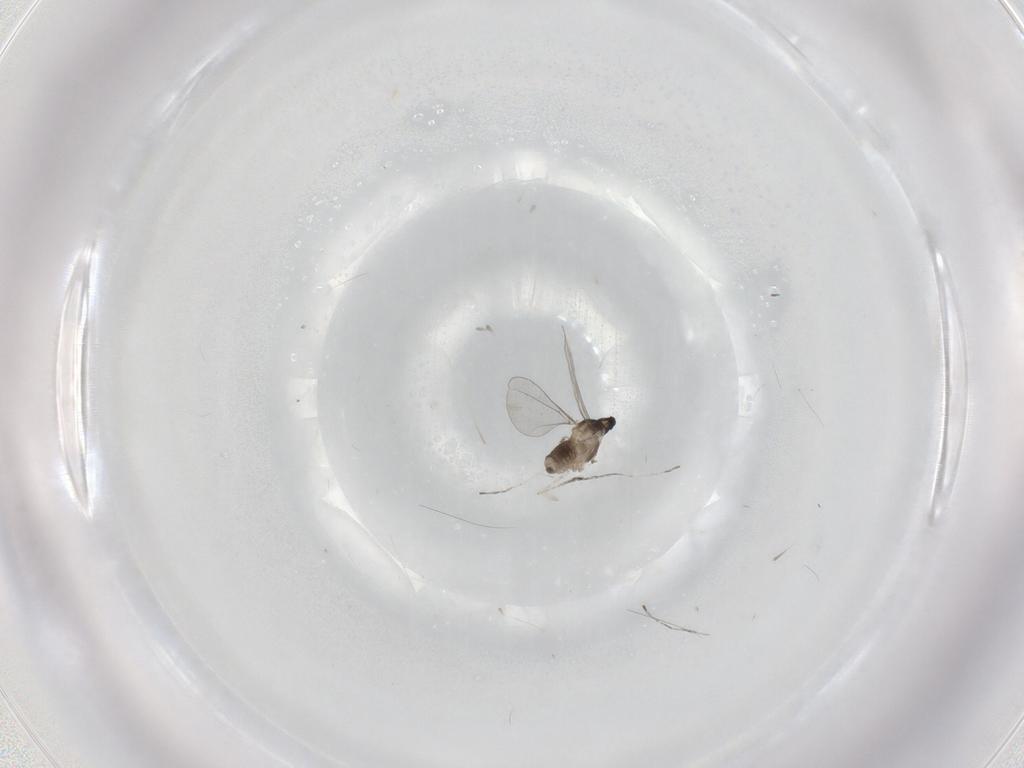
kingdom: Animalia
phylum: Arthropoda
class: Insecta
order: Diptera
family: Cecidomyiidae
